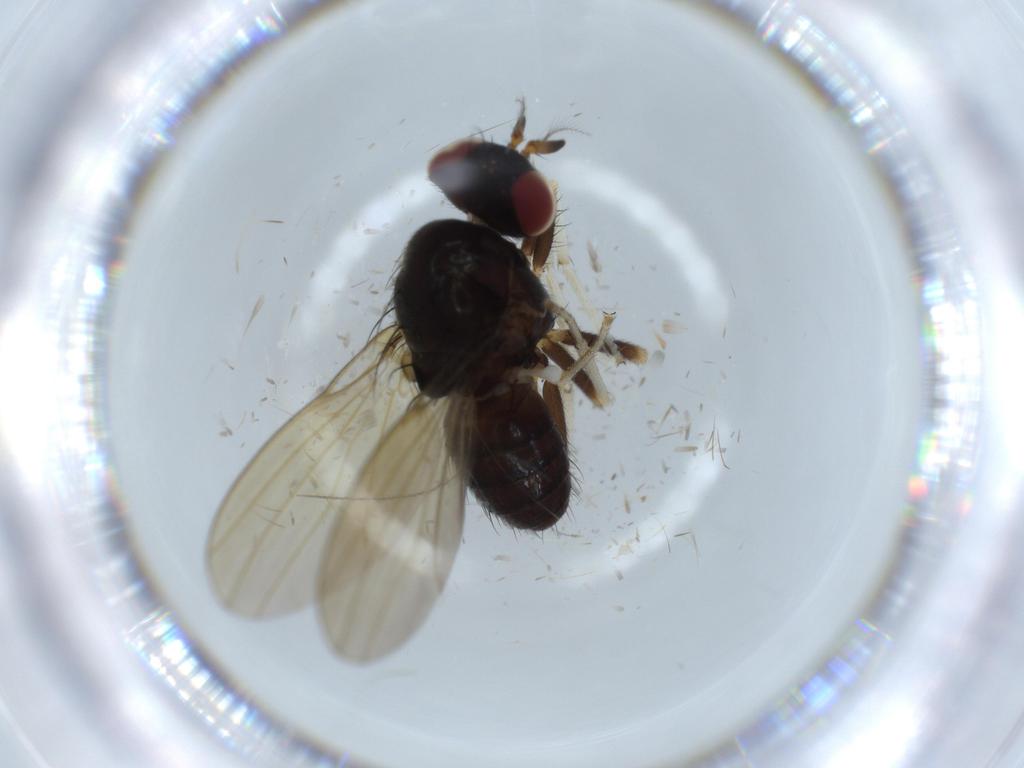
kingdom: Animalia
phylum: Arthropoda
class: Insecta
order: Diptera
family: Lauxaniidae
